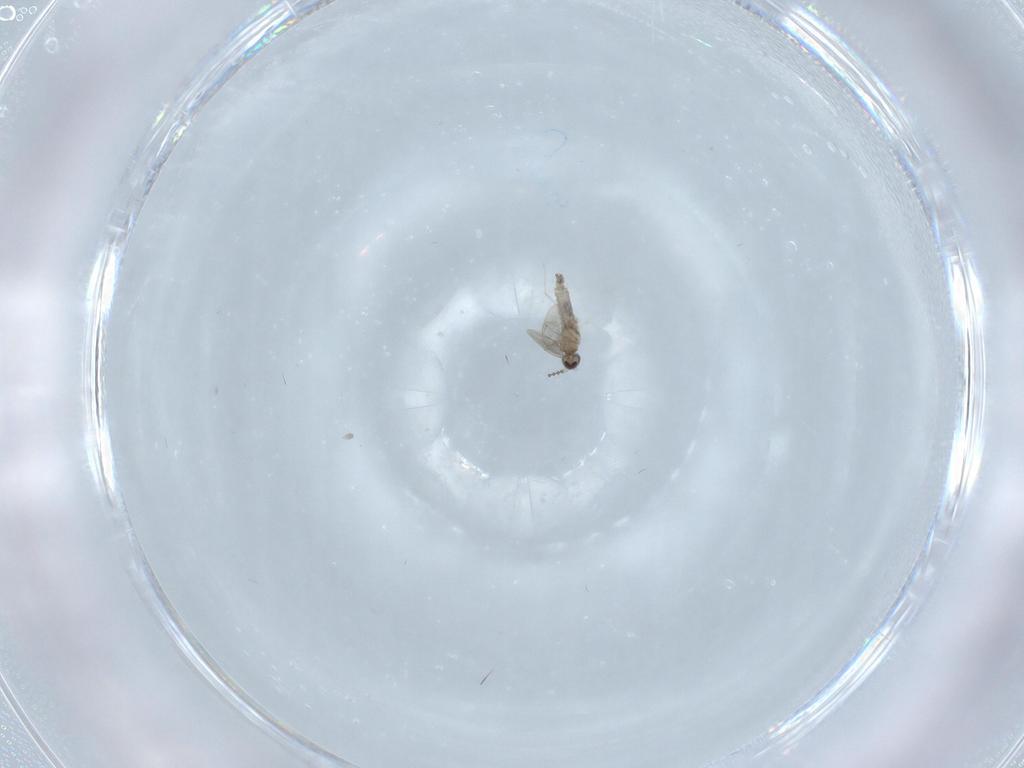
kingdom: Animalia
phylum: Arthropoda
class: Insecta
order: Diptera
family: Cecidomyiidae
